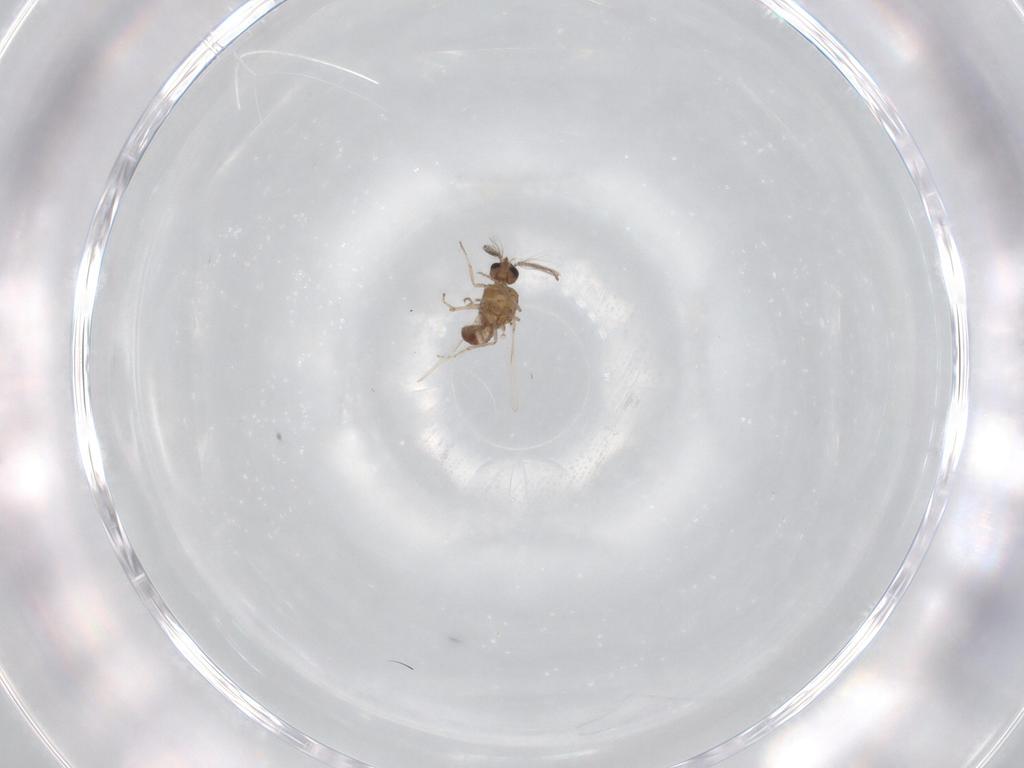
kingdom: Animalia
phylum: Arthropoda
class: Insecta
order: Diptera
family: Ceratopogonidae
